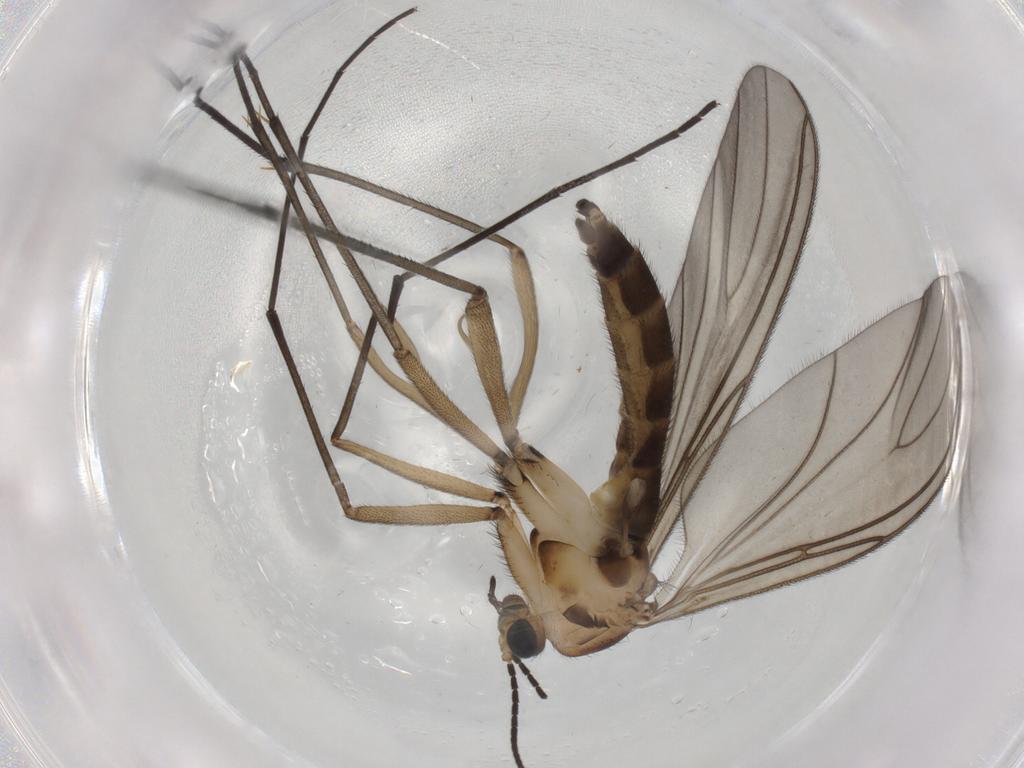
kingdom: Animalia
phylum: Arthropoda
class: Insecta
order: Diptera
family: Sciaridae
